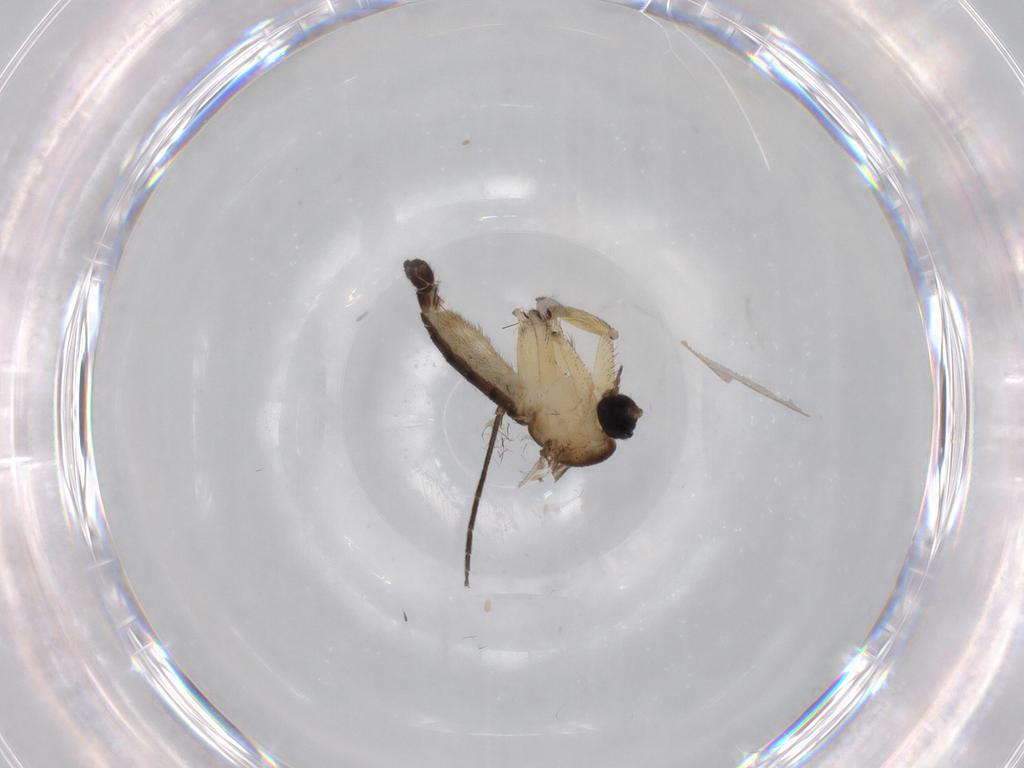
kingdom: Animalia
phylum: Arthropoda
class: Insecta
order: Diptera
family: Sciaridae
